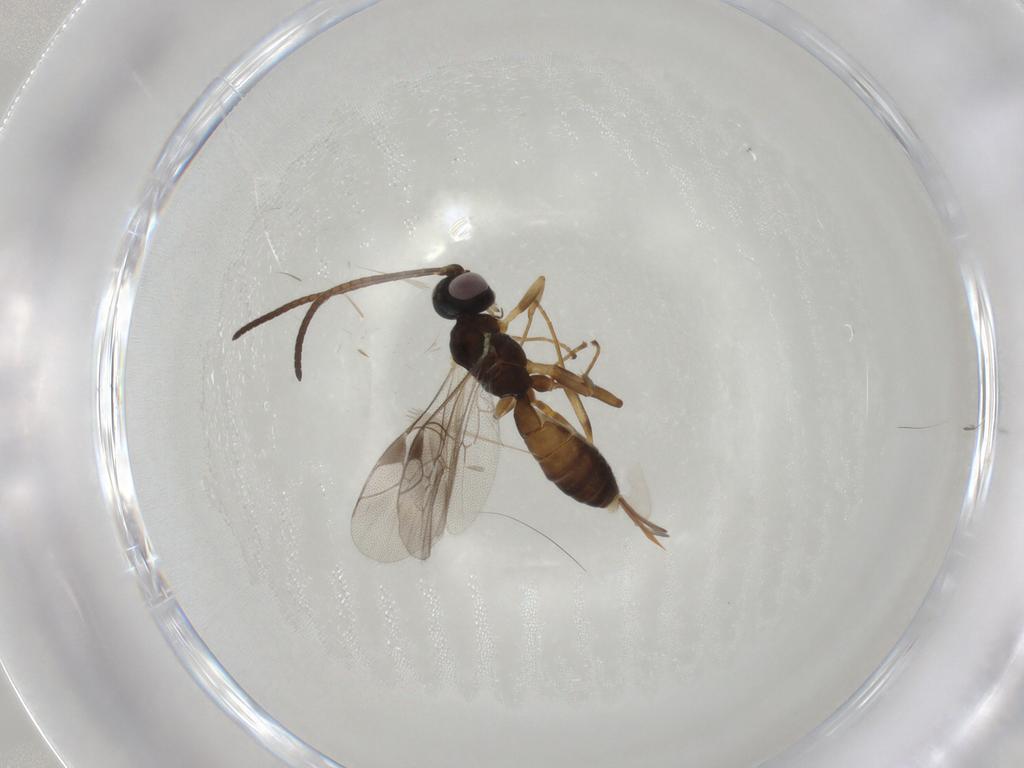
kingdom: Animalia
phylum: Arthropoda
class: Insecta
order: Hymenoptera
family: Ichneumonidae
